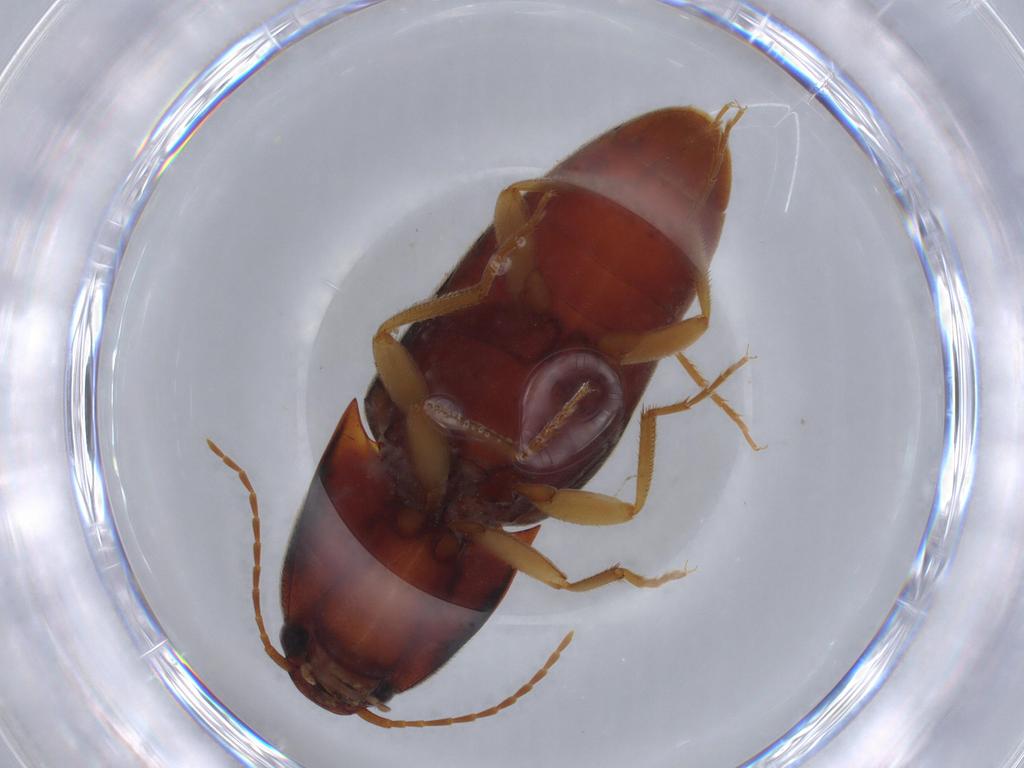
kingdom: Animalia
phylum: Arthropoda
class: Insecta
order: Coleoptera
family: Elateridae
